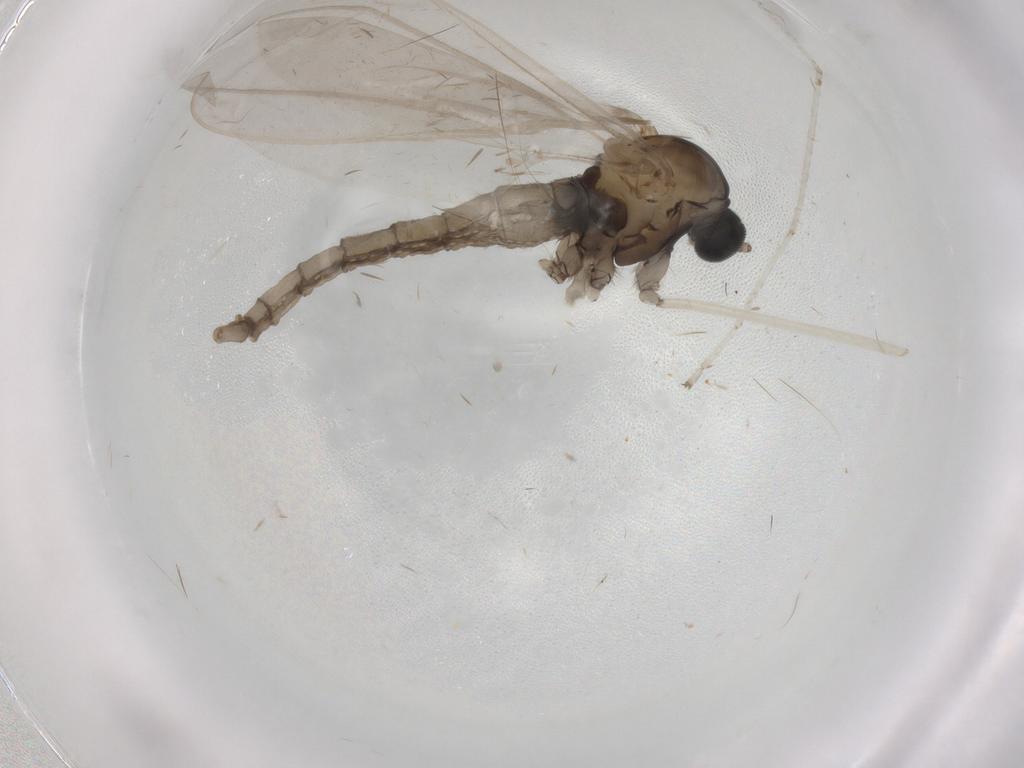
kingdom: Animalia
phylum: Arthropoda
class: Insecta
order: Diptera
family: Cecidomyiidae
